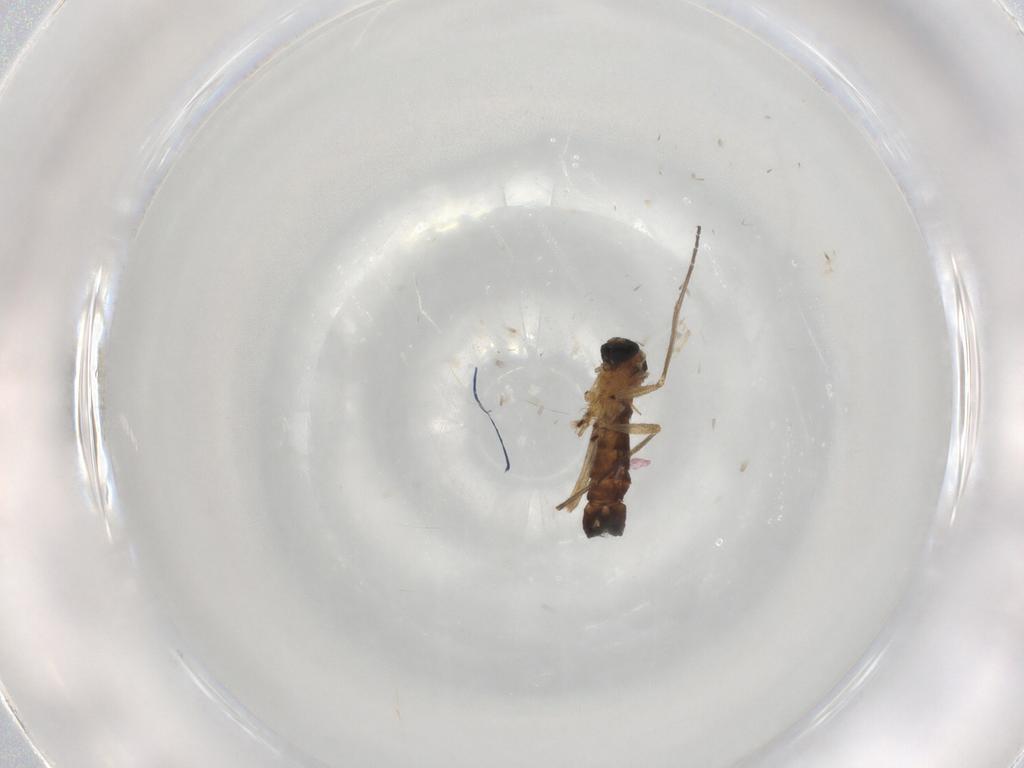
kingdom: Animalia
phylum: Arthropoda
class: Insecta
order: Diptera
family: Sciaridae
